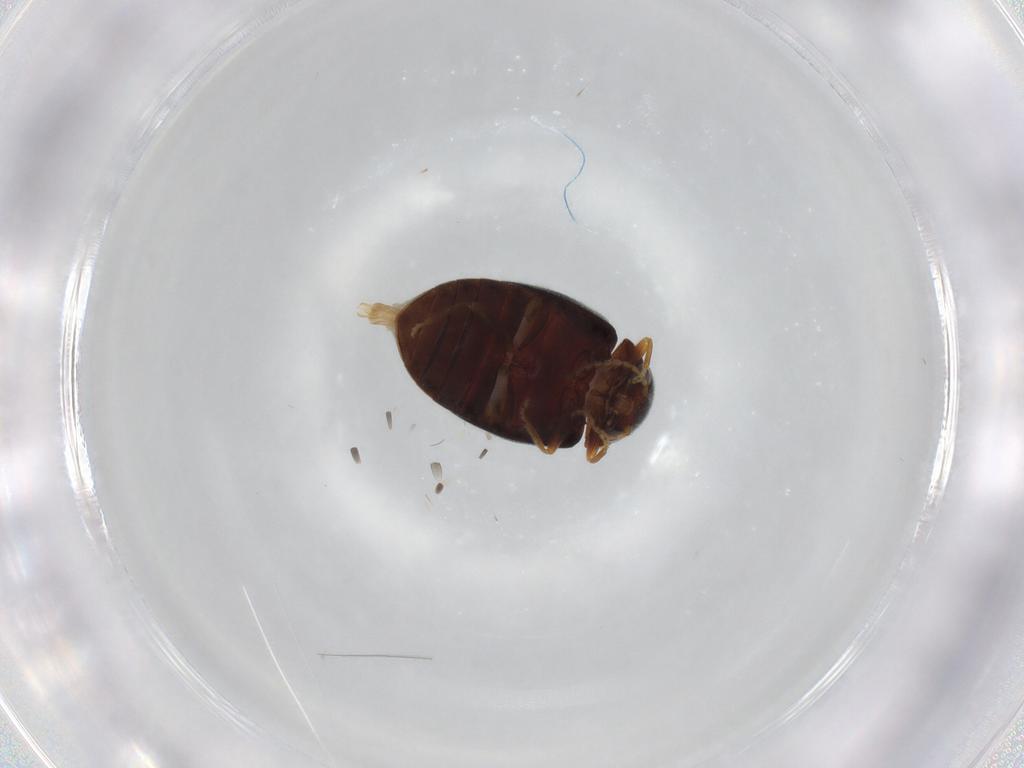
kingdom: Animalia
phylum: Arthropoda
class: Insecta
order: Coleoptera
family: Scirtidae
